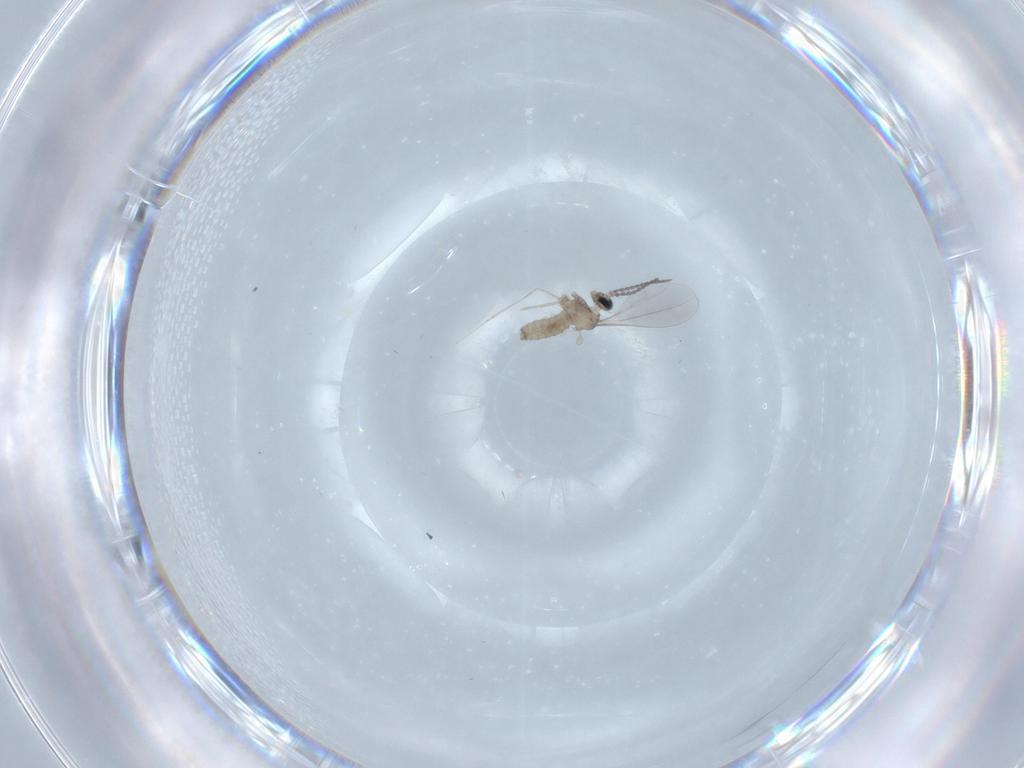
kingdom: Animalia
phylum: Arthropoda
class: Insecta
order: Diptera
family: Cecidomyiidae
